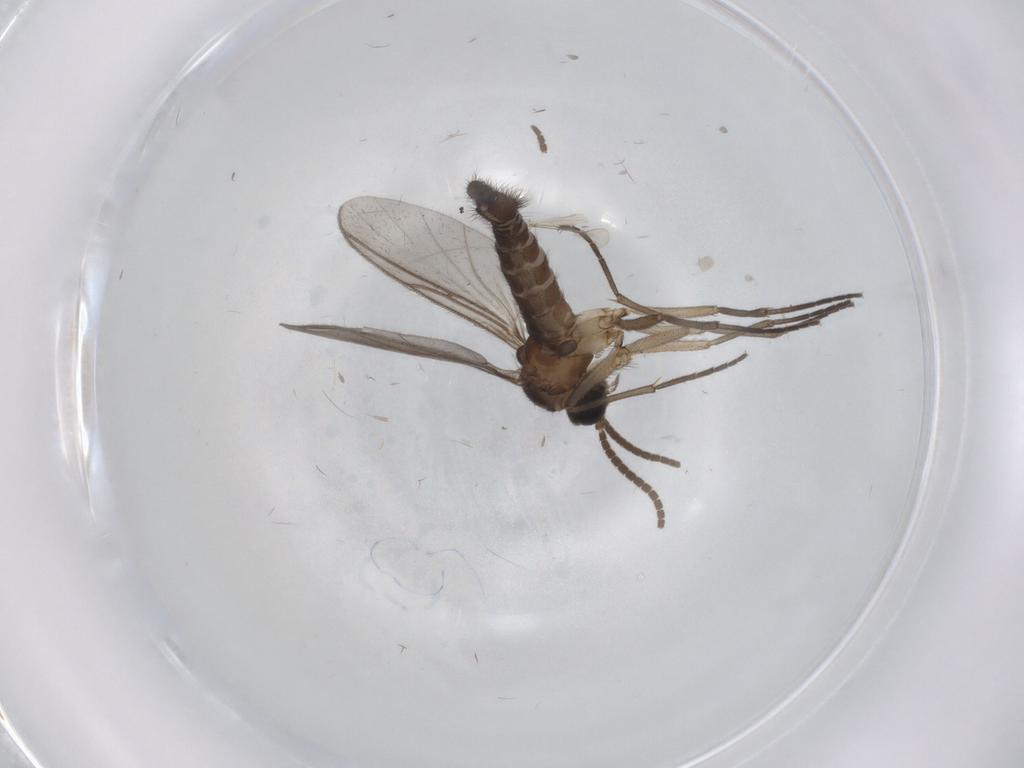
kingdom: Animalia
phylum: Arthropoda
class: Insecta
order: Diptera
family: Sciaridae
